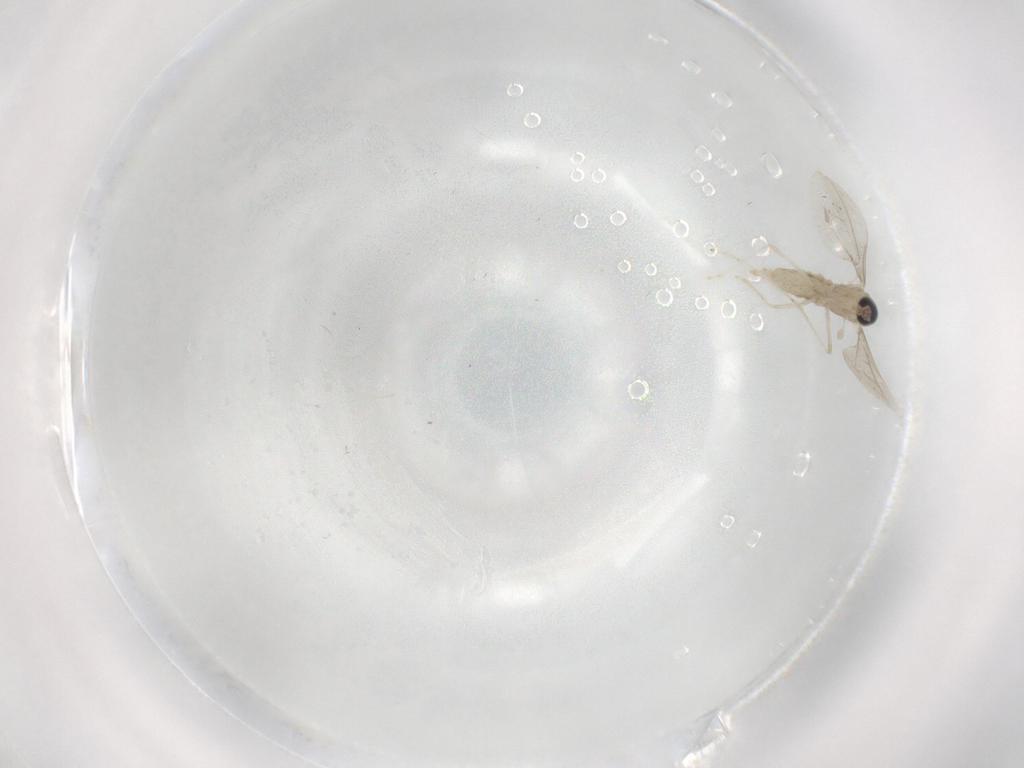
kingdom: Animalia
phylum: Arthropoda
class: Insecta
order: Diptera
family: Cecidomyiidae
